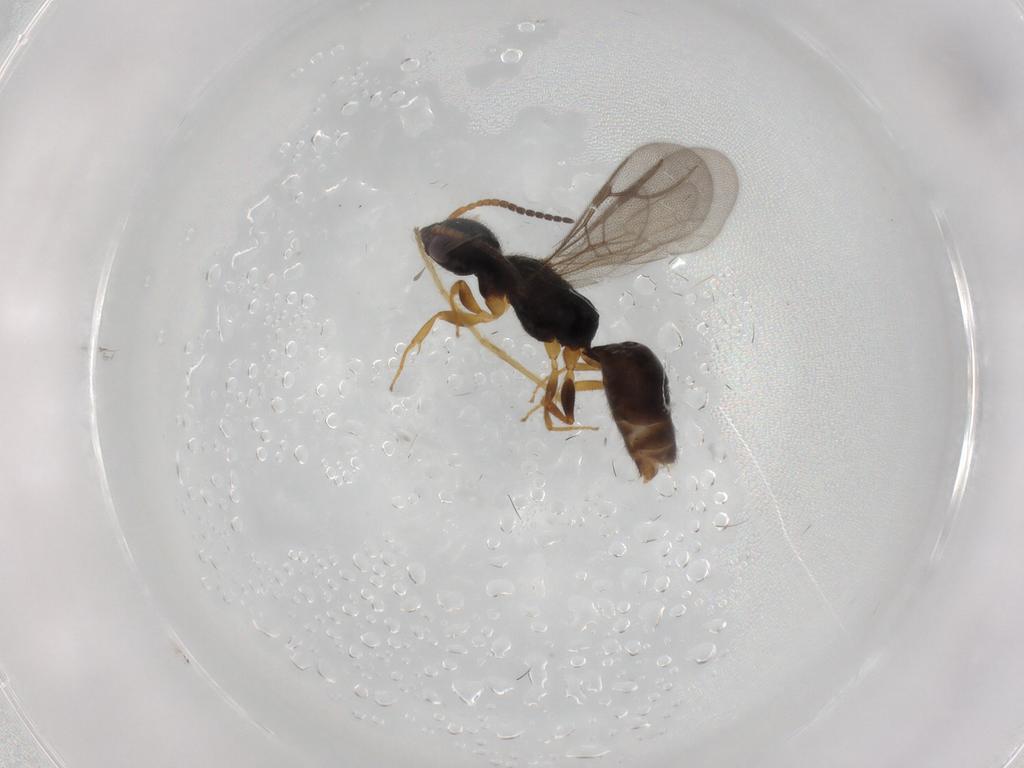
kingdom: Animalia
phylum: Arthropoda
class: Insecta
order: Hymenoptera
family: Bethylidae
